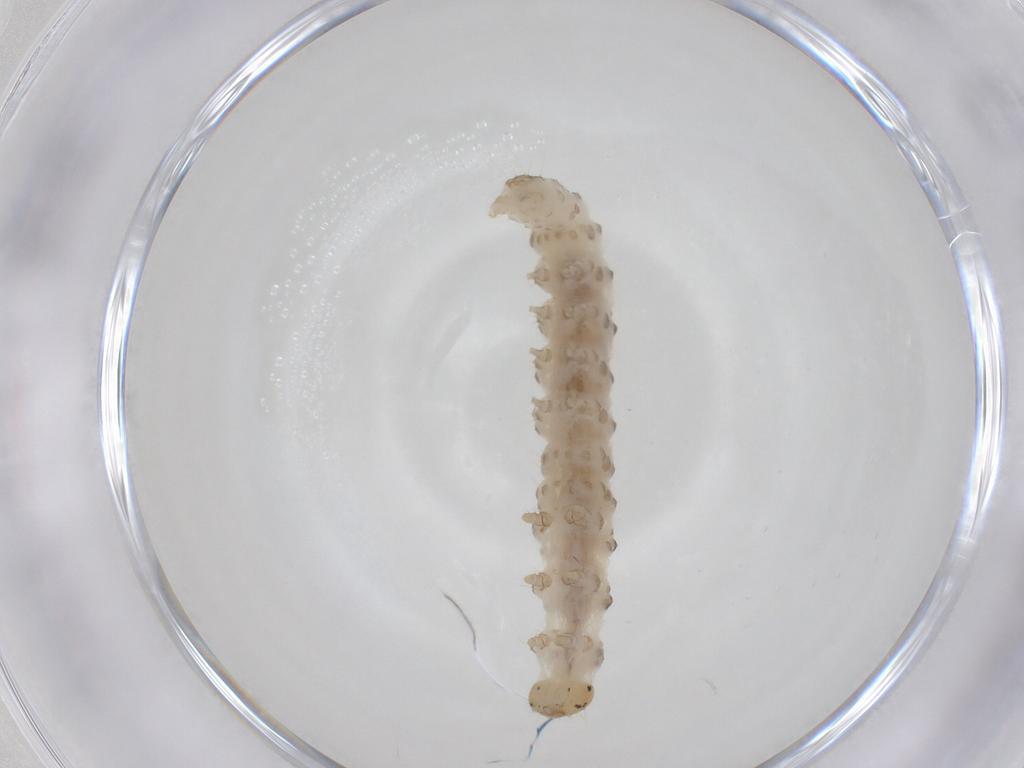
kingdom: Animalia
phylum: Arthropoda
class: Insecta
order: Lepidoptera
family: Crambidae
